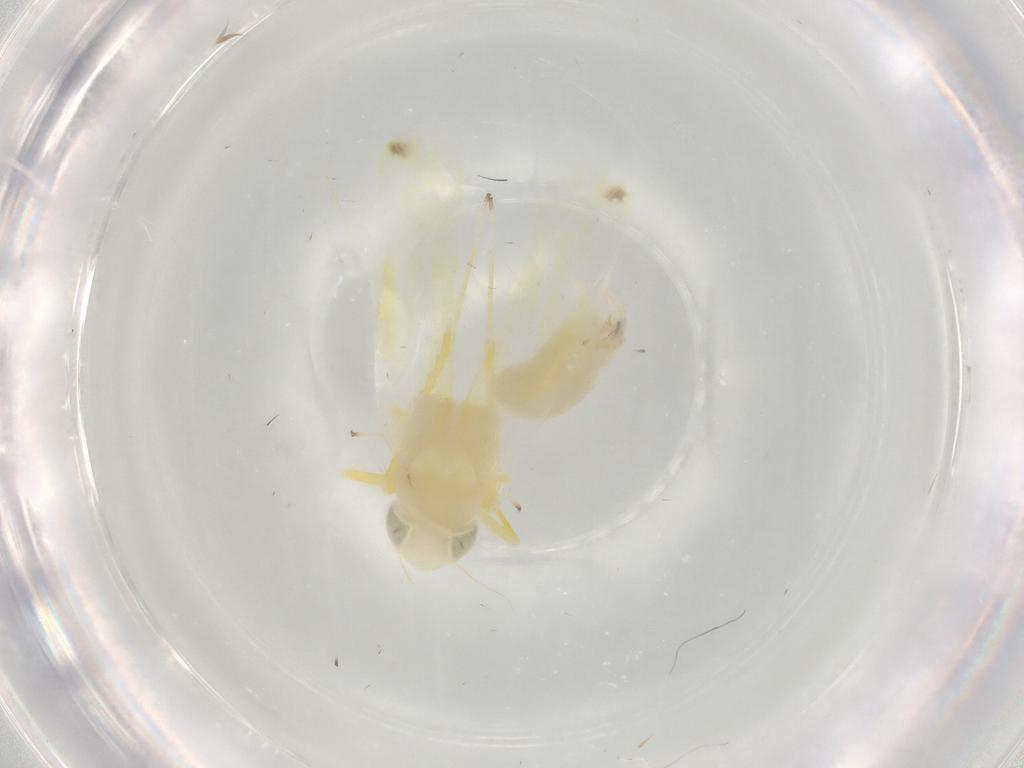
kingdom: Animalia
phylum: Arthropoda
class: Insecta
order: Hemiptera
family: Cicadellidae
